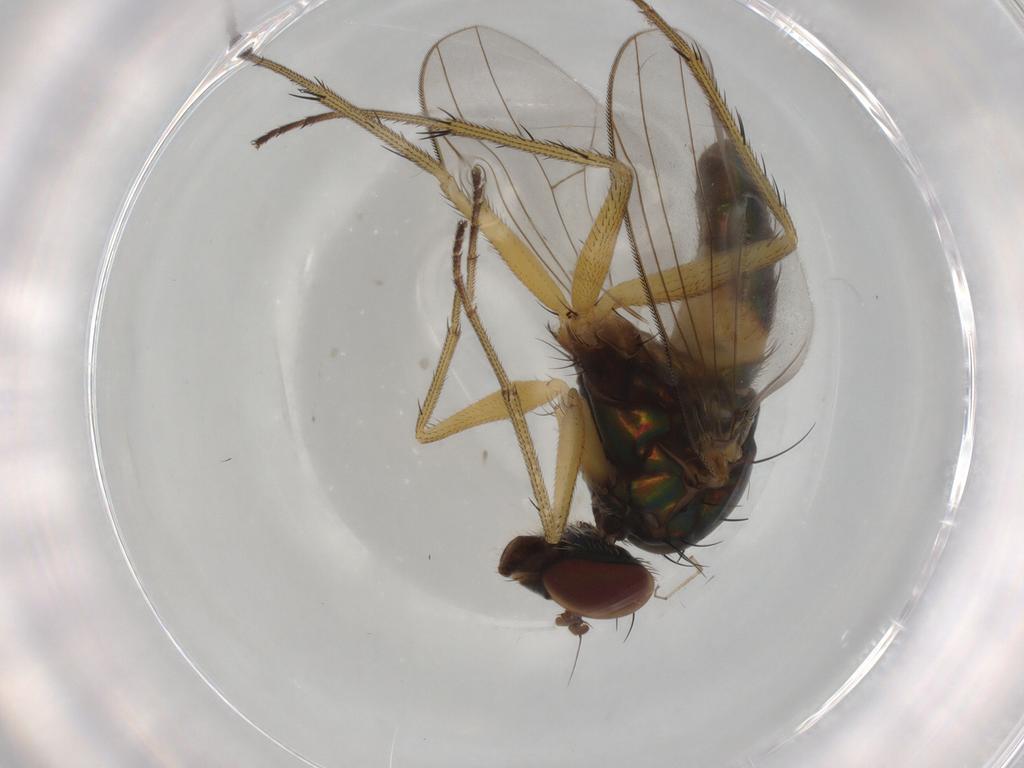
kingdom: Animalia
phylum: Arthropoda
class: Insecta
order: Diptera
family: Ceratopogonidae
